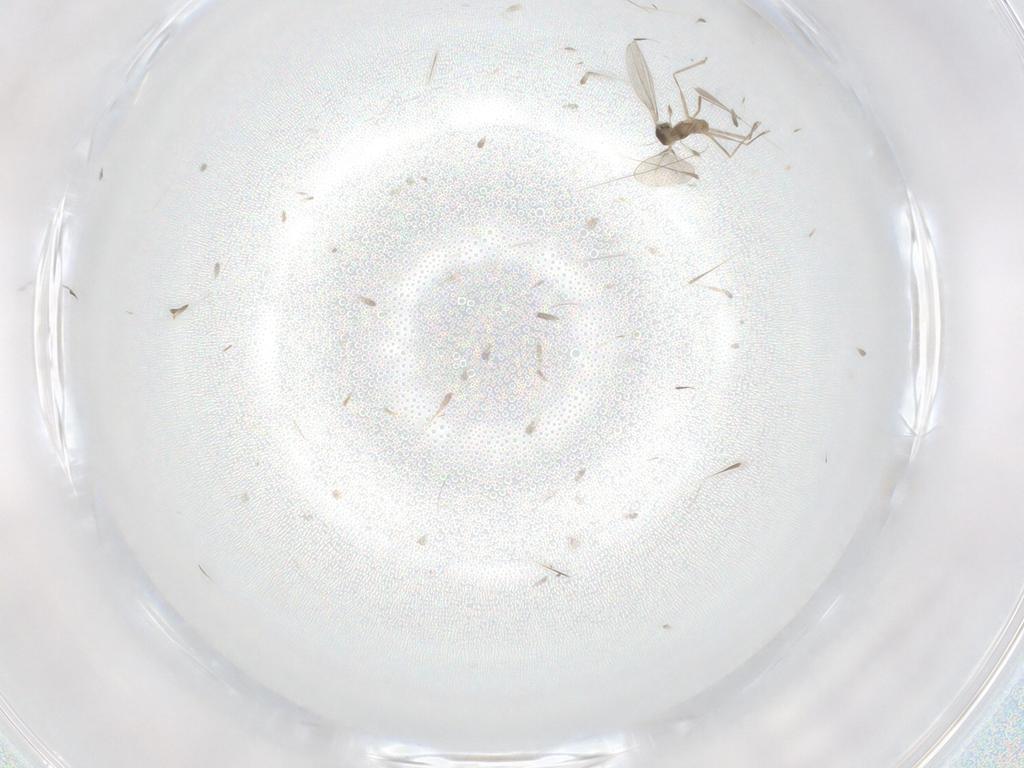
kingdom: Animalia
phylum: Arthropoda
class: Insecta
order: Diptera
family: Cecidomyiidae
